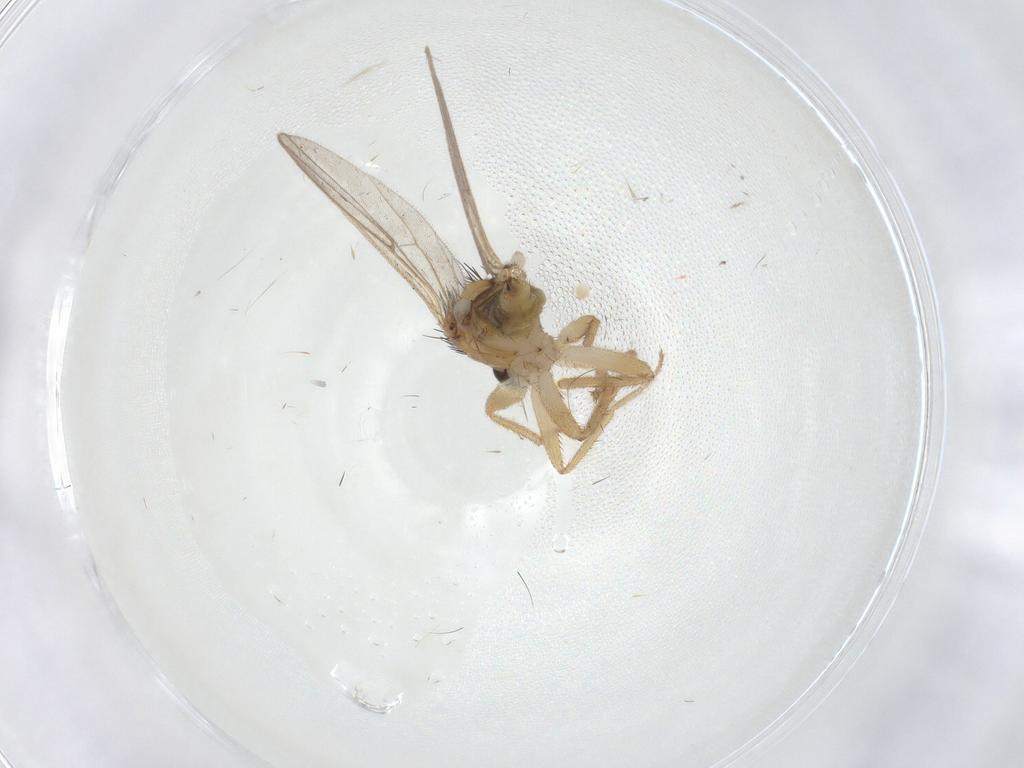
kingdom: Animalia
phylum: Arthropoda
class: Insecta
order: Diptera
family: Hybotidae
